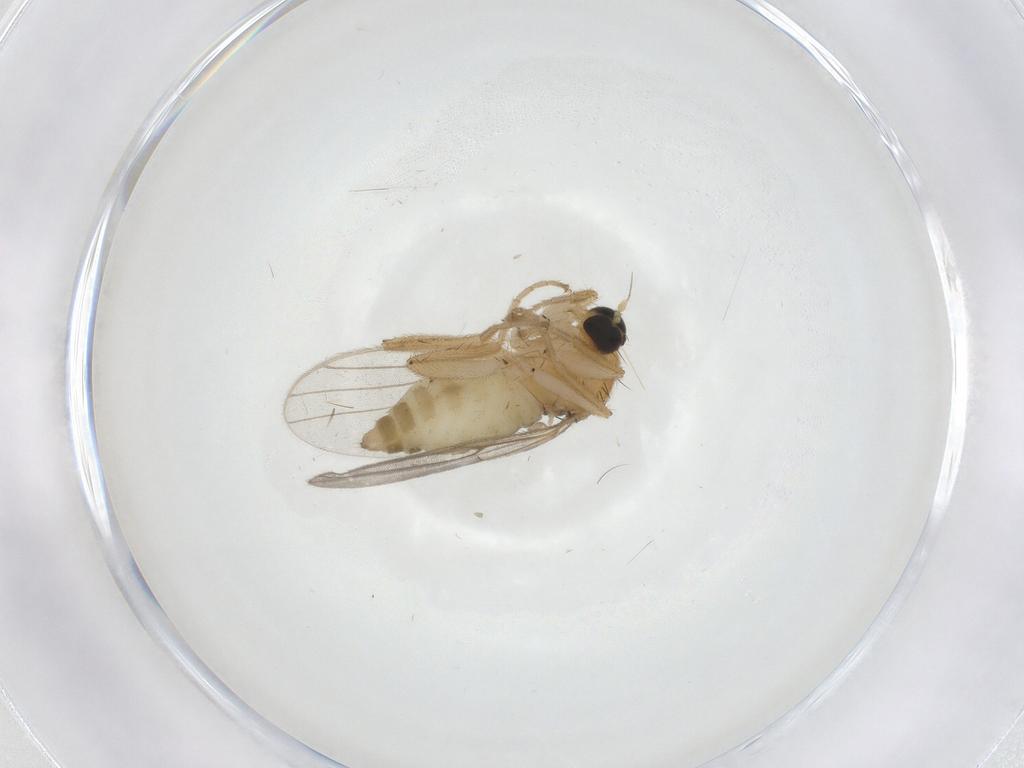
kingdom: Animalia
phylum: Arthropoda
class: Insecta
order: Diptera
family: Hybotidae
